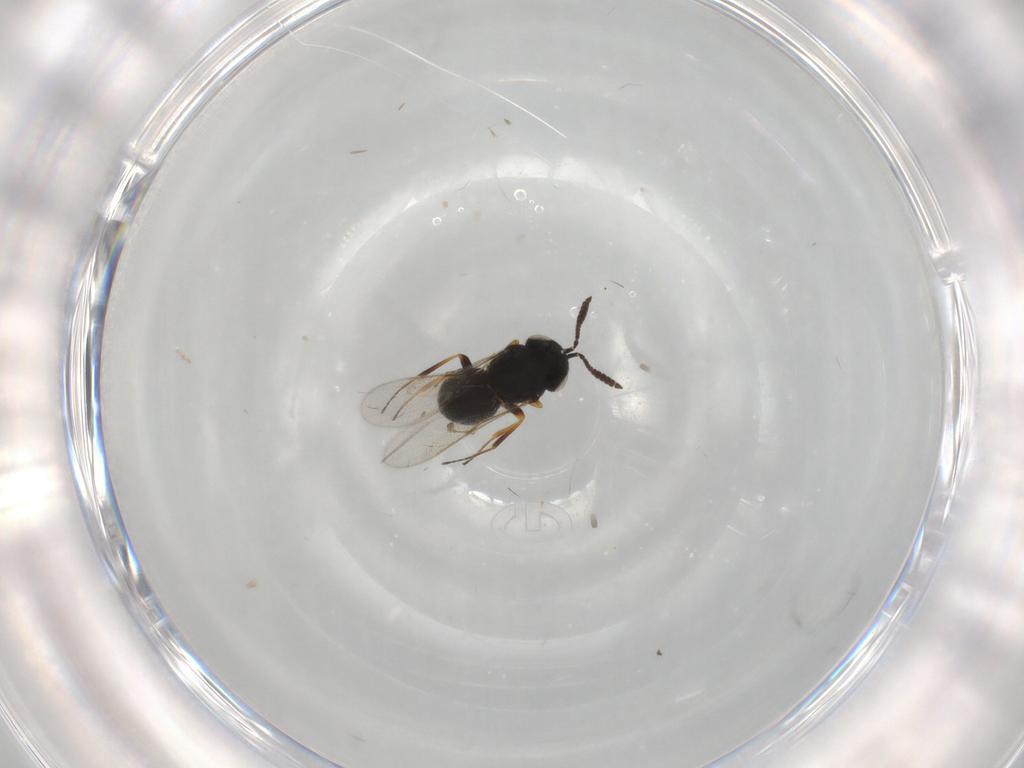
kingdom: Animalia
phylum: Arthropoda
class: Insecta
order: Hymenoptera
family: Scelionidae
